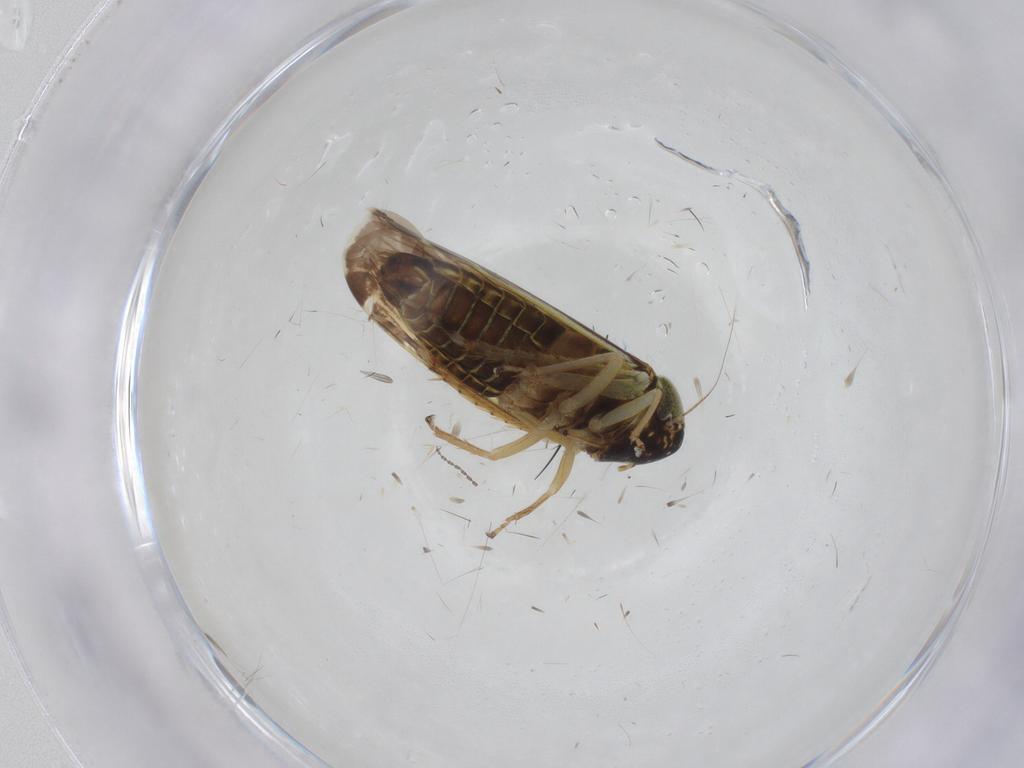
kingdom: Animalia
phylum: Arthropoda
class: Insecta
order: Hemiptera
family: Cicadellidae
